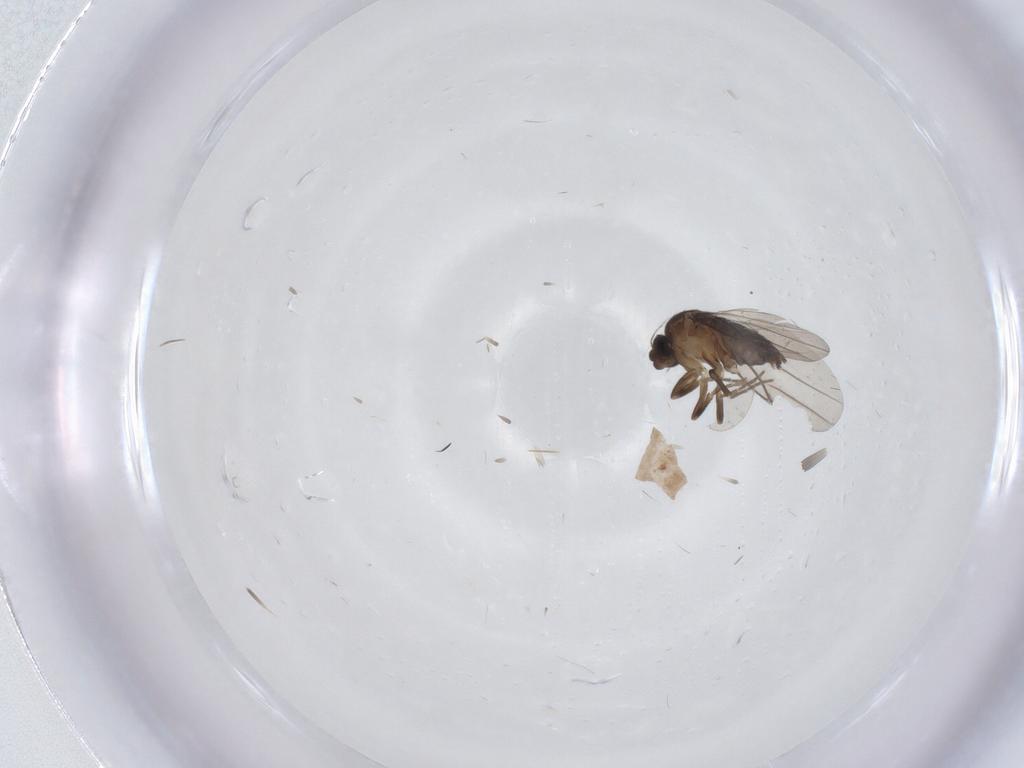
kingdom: Animalia
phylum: Arthropoda
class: Insecta
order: Diptera
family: Phoridae
